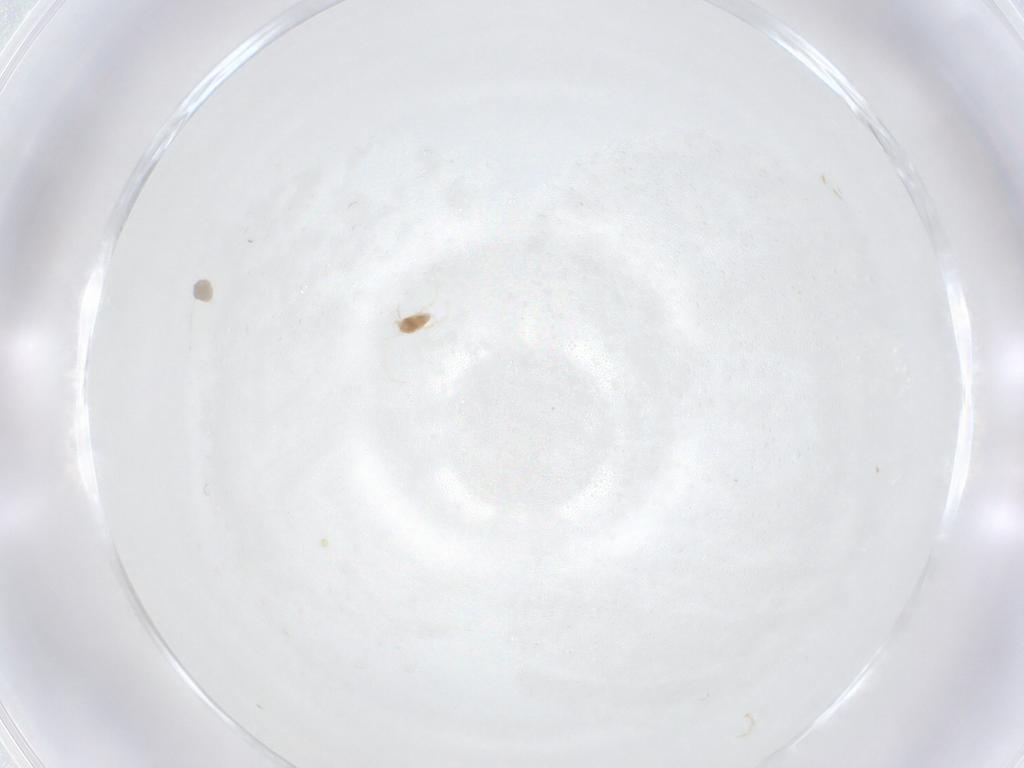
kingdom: Animalia
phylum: Arthropoda
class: Arachnida
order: Trombidiformes
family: Eupodidae
